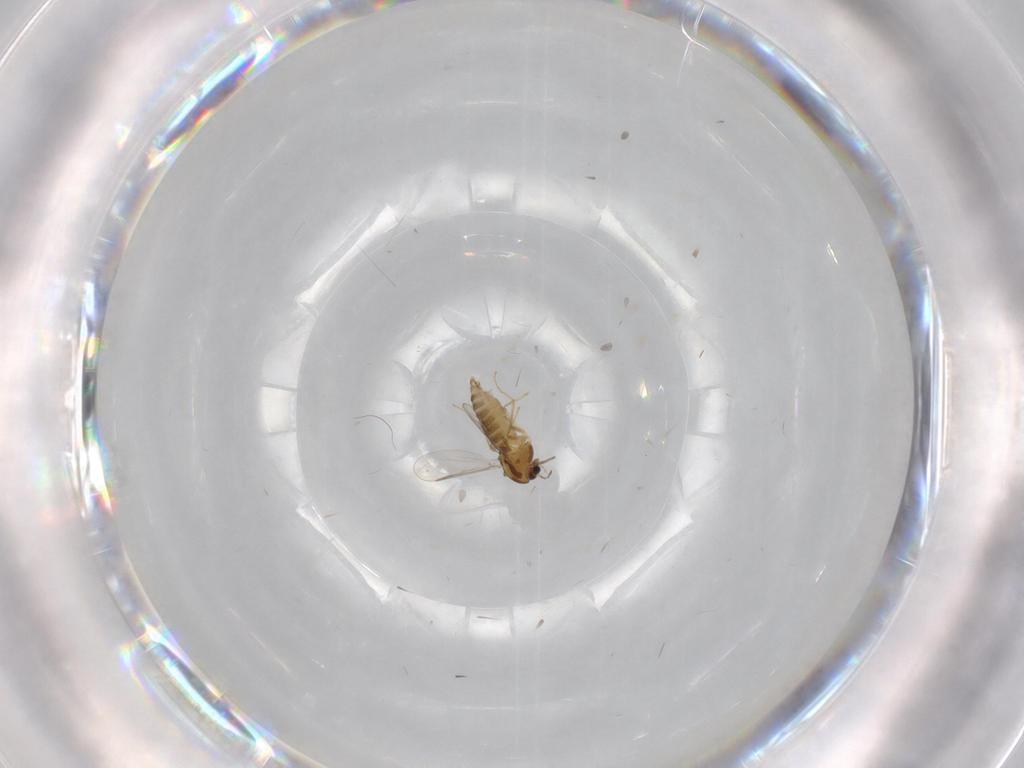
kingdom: Animalia
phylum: Arthropoda
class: Insecta
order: Diptera
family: Chironomidae
